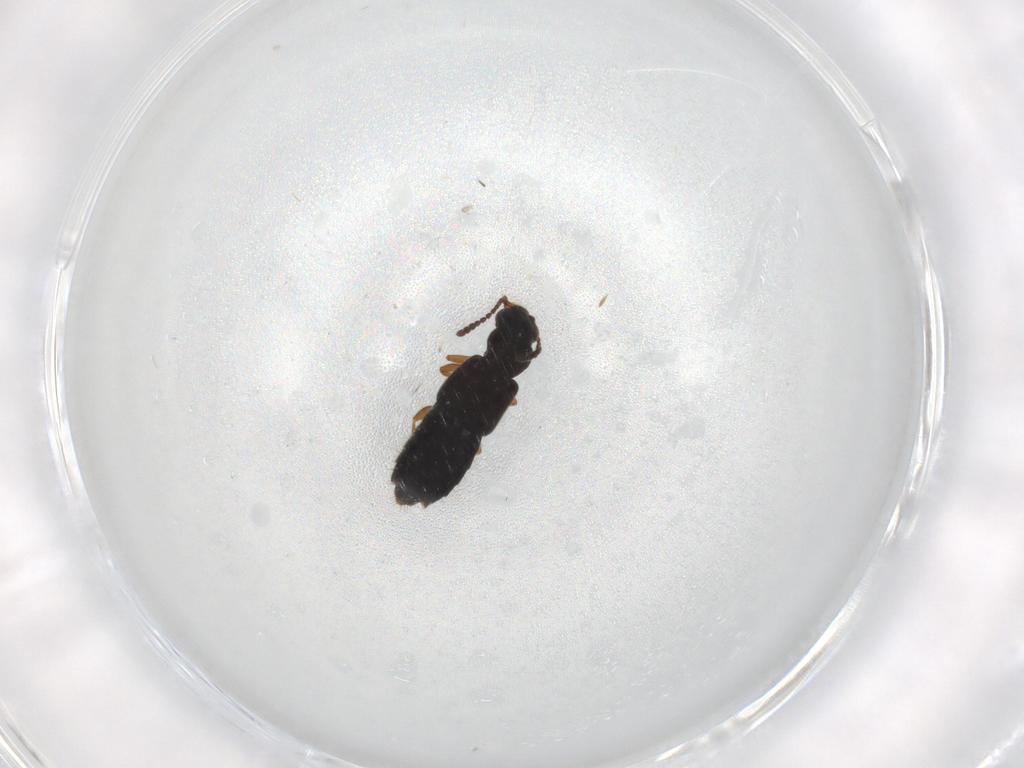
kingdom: Animalia
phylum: Arthropoda
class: Insecta
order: Coleoptera
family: Staphylinidae
